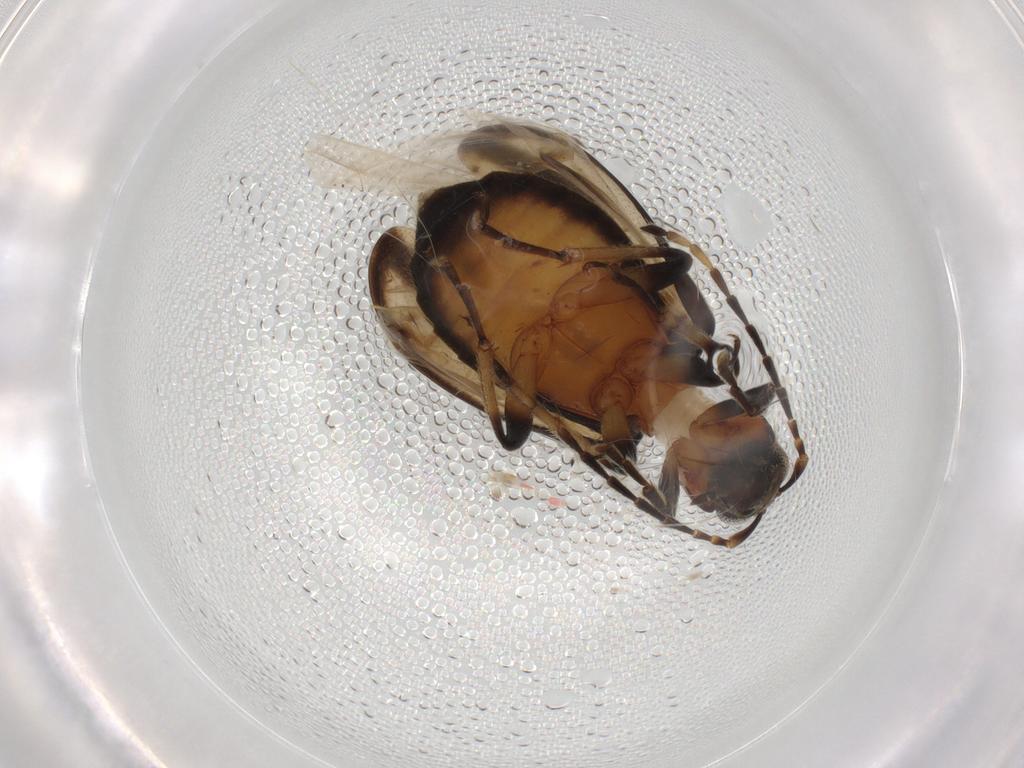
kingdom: Animalia
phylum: Arthropoda
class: Insecta
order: Coleoptera
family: Chrysomelidae
